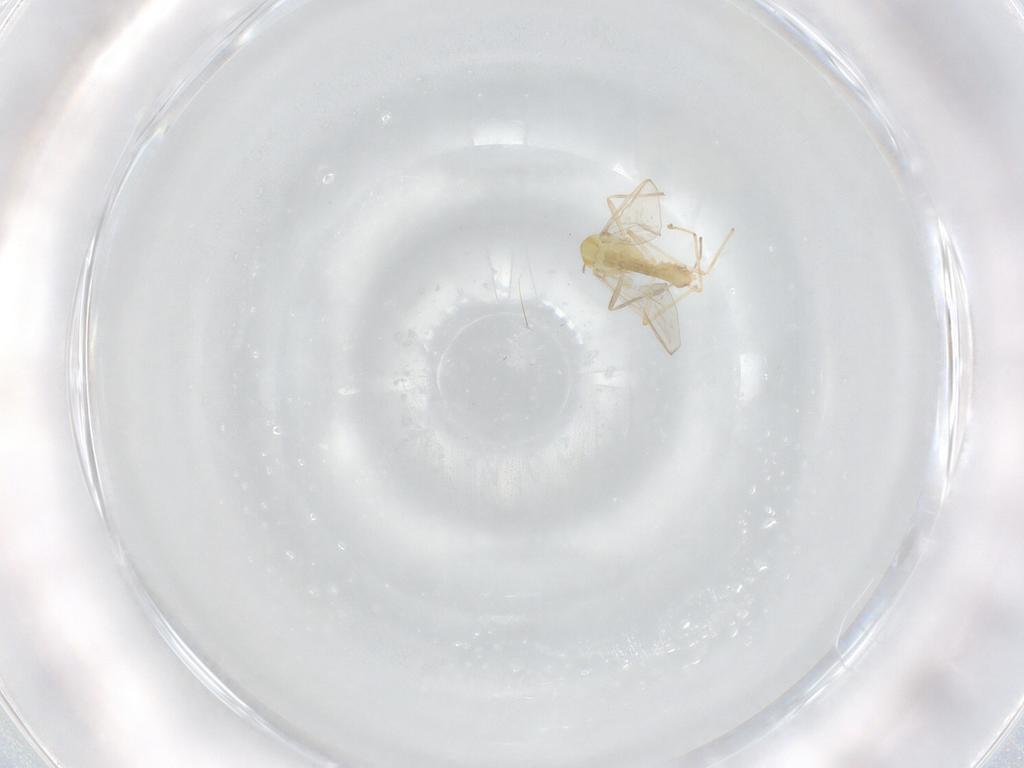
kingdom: Animalia
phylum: Arthropoda
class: Insecta
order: Diptera
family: Chironomidae
